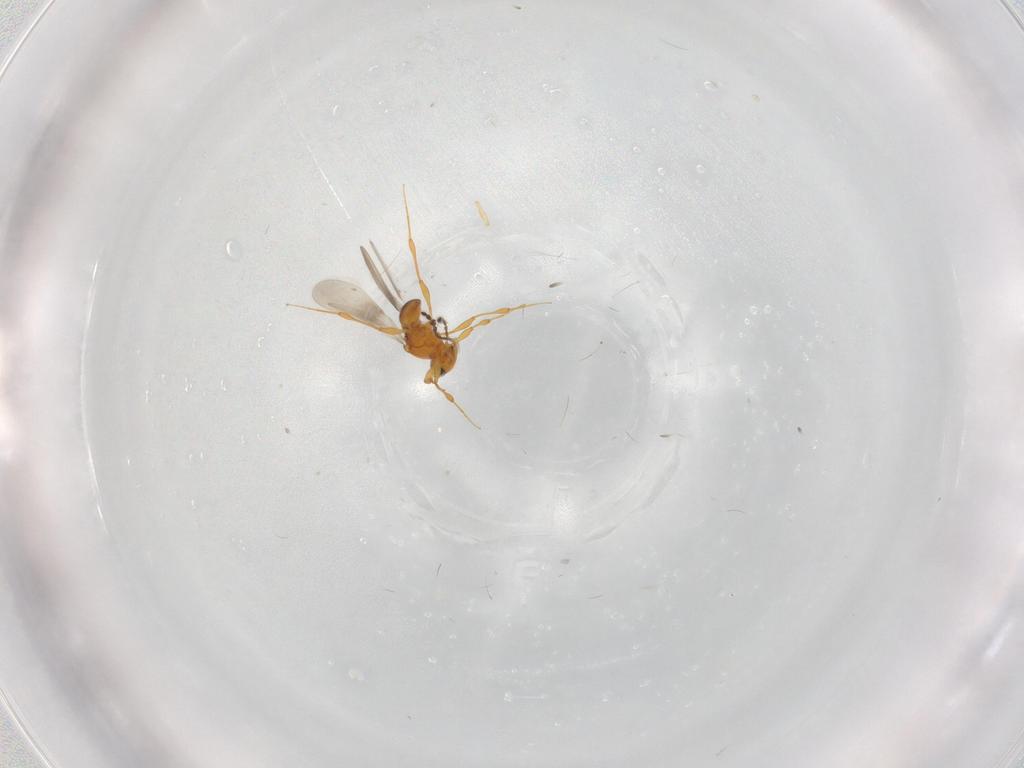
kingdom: Animalia
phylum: Arthropoda
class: Insecta
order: Hymenoptera
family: Platygastridae
